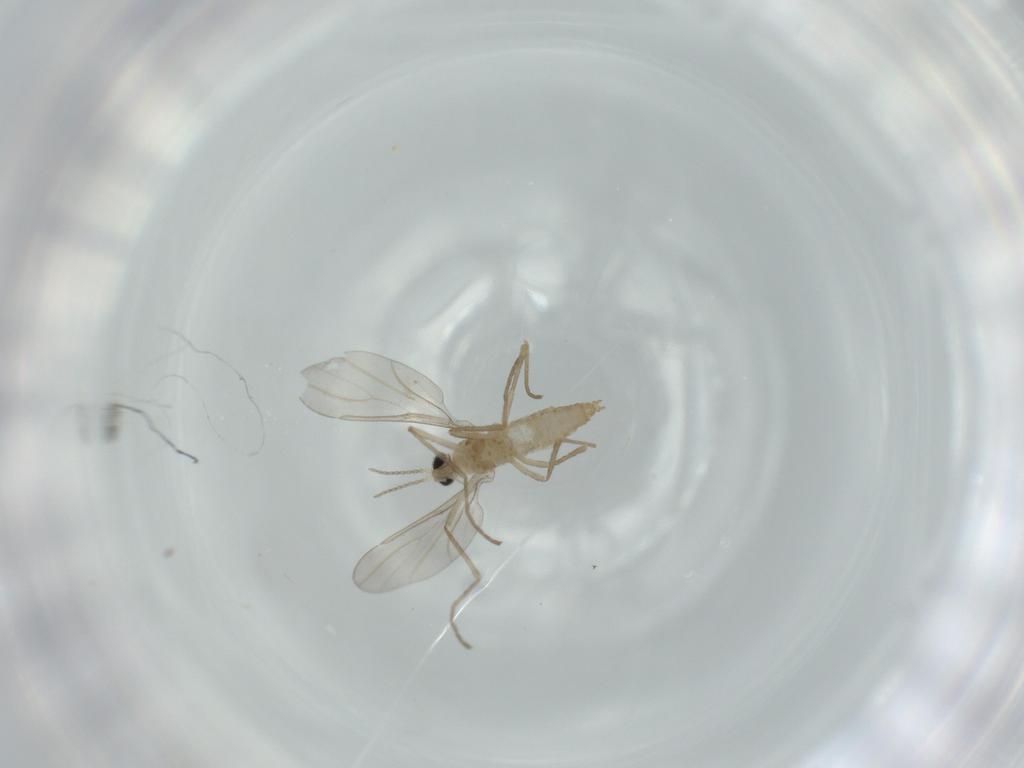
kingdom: Animalia
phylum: Arthropoda
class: Insecta
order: Diptera
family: Cecidomyiidae
